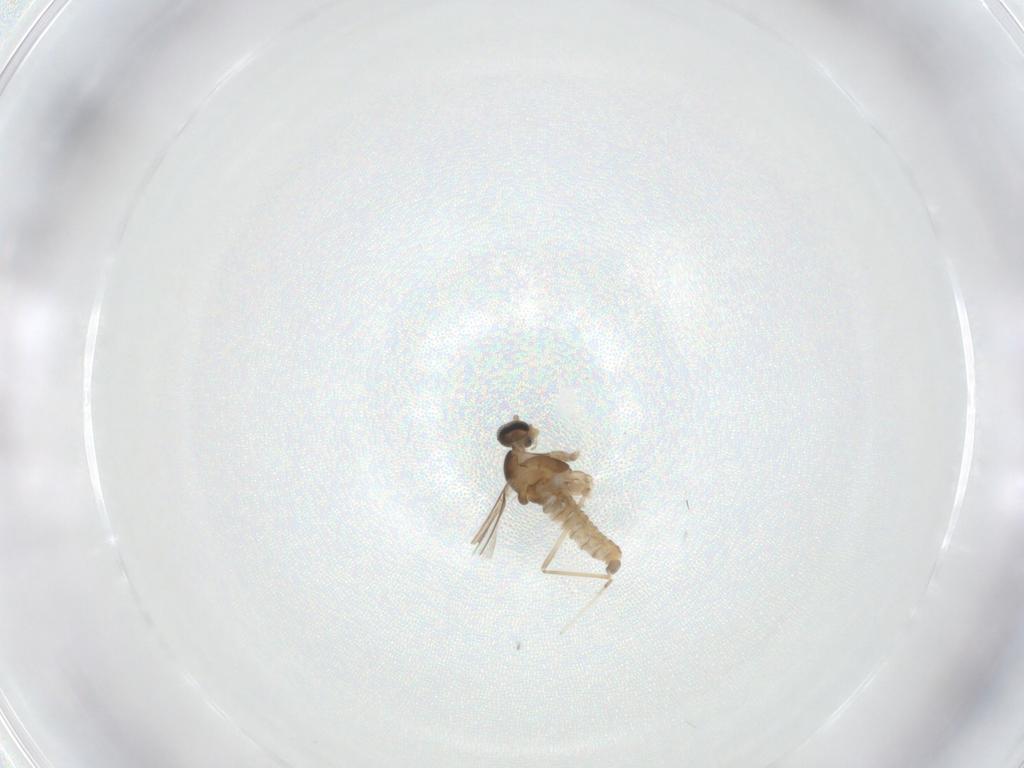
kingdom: Animalia
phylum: Arthropoda
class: Insecta
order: Diptera
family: Cecidomyiidae
